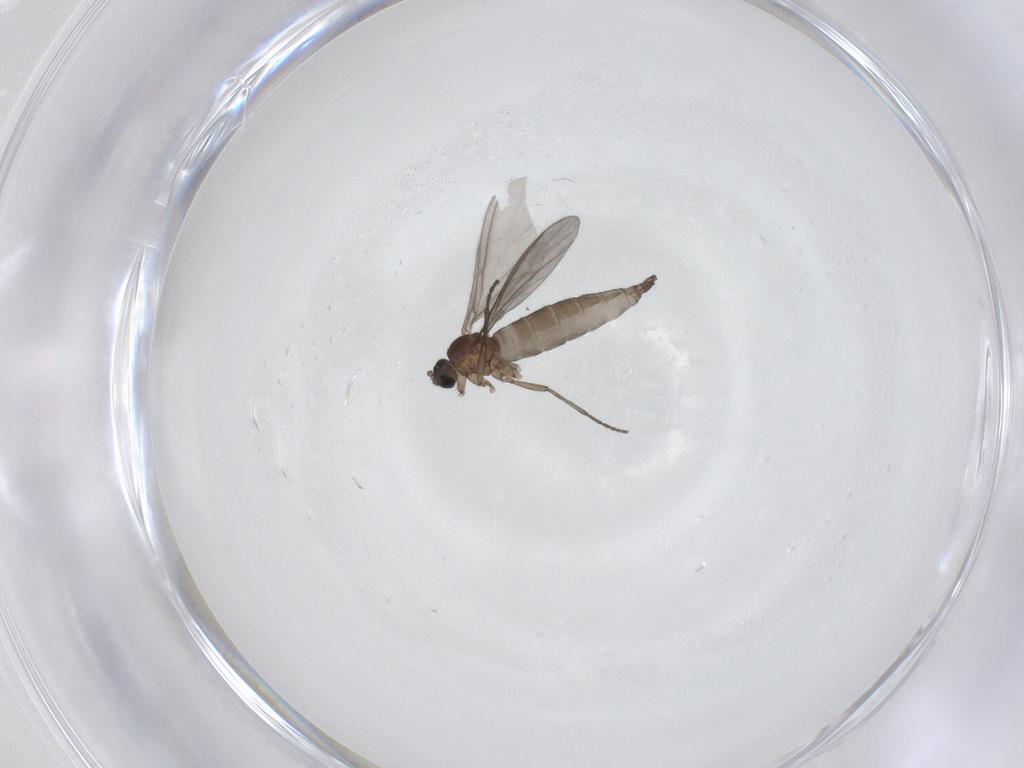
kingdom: Animalia
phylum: Arthropoda
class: Insecta
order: Diptera
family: Sciaridae
